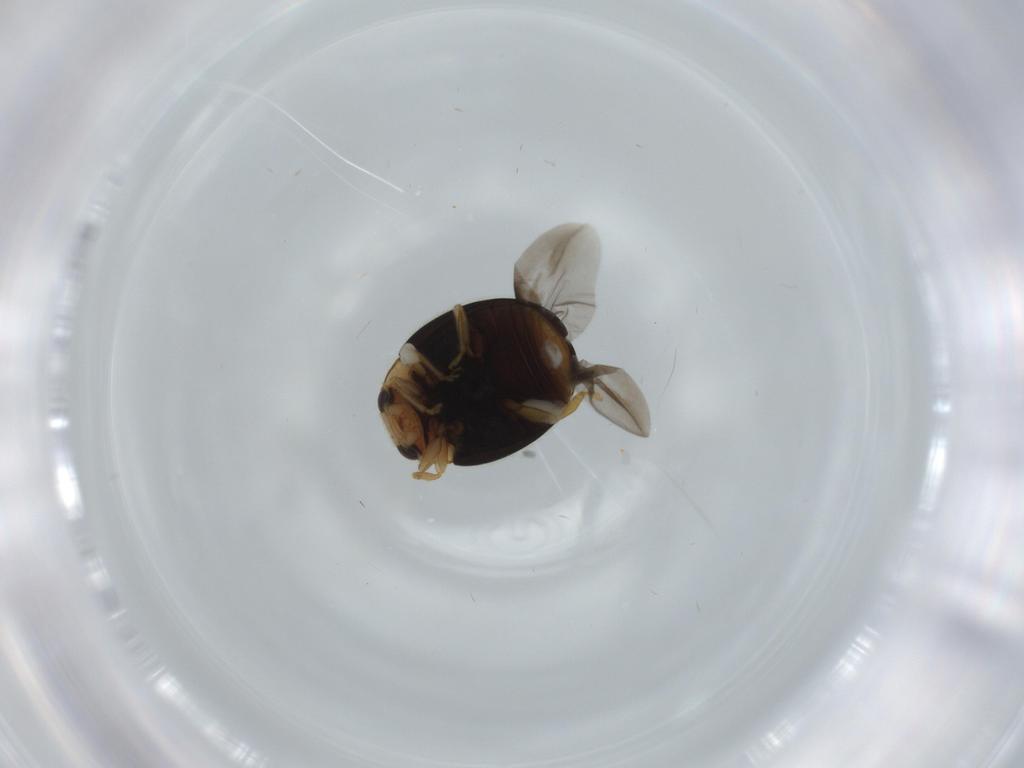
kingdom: Animalia
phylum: Arthropoda
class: Insecta
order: Coleoptera
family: Coccinellidae
